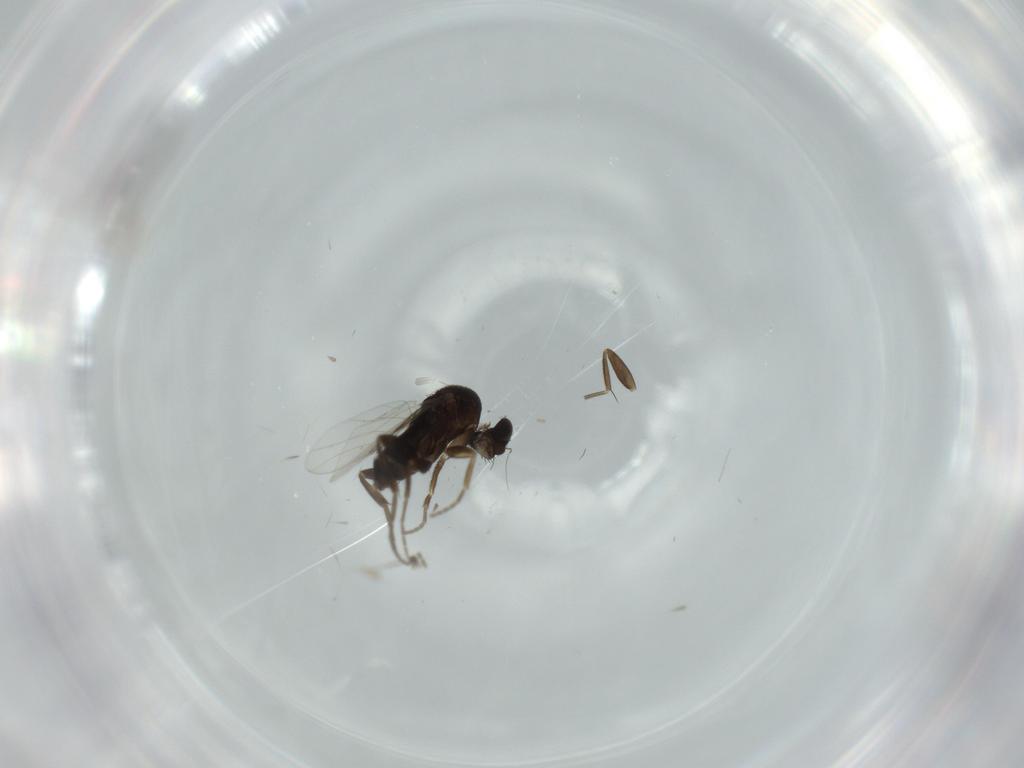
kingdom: Animalia
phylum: Arthropoda
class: Insecta
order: Diptera
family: Phoridae
